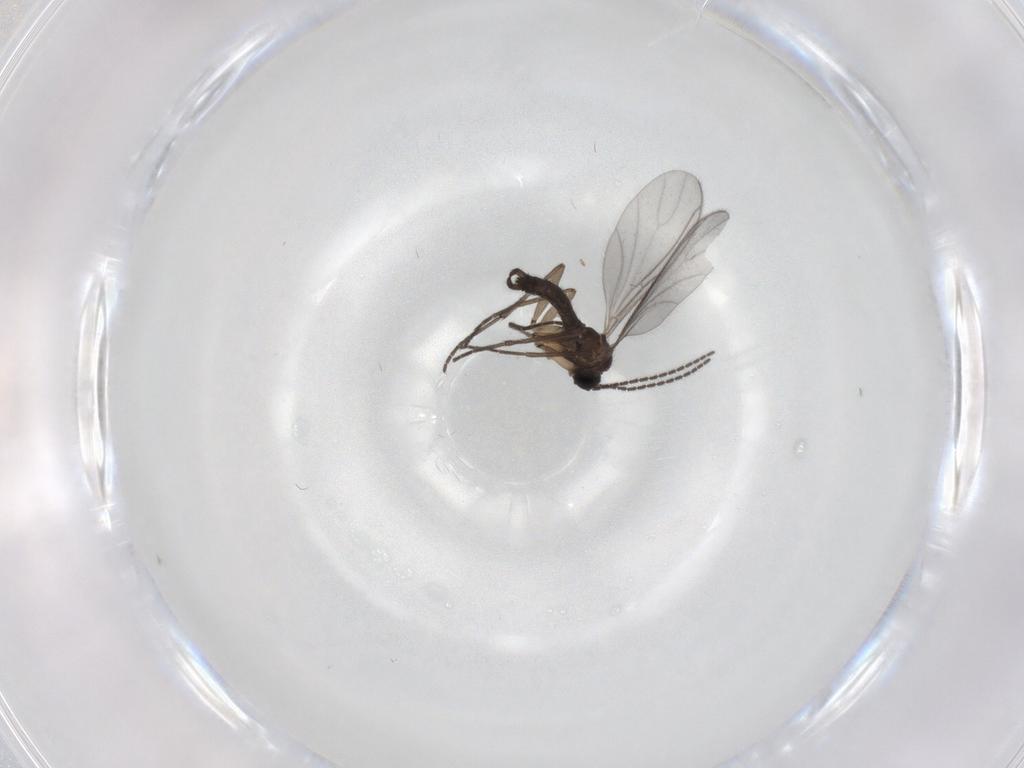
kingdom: Animalia
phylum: Arthropoda
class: Insecta
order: Diptera
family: Sciaridae
